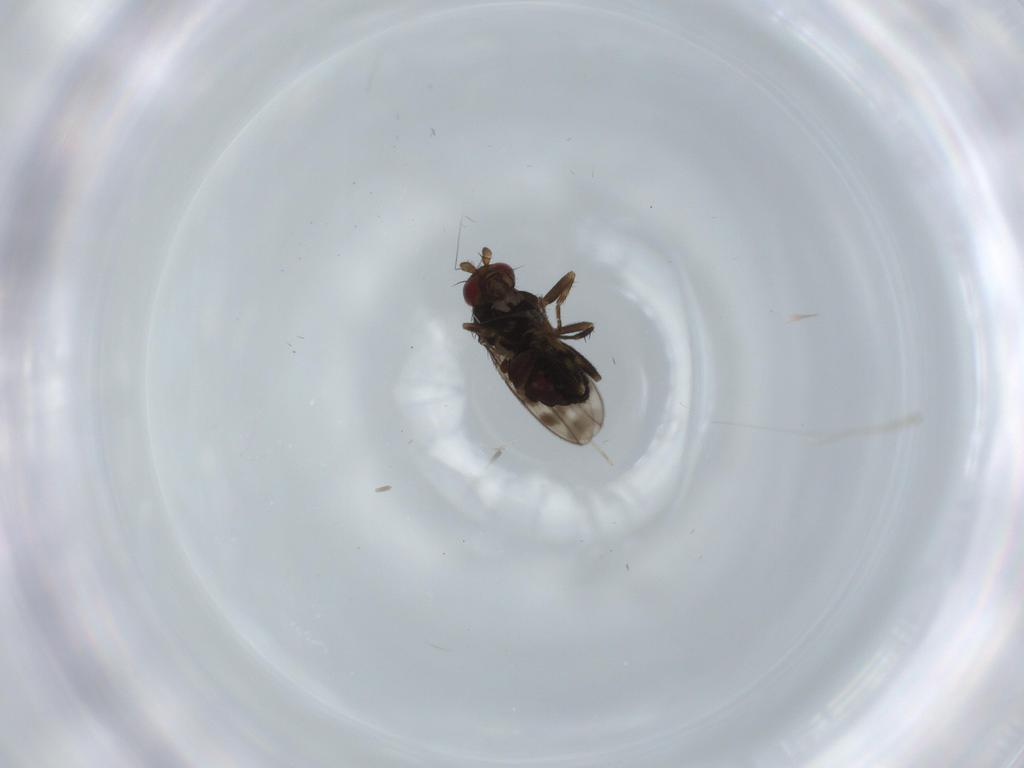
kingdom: Animalia
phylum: Arthropoda
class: Insecta
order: Diptera
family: Sphaeroceridae
